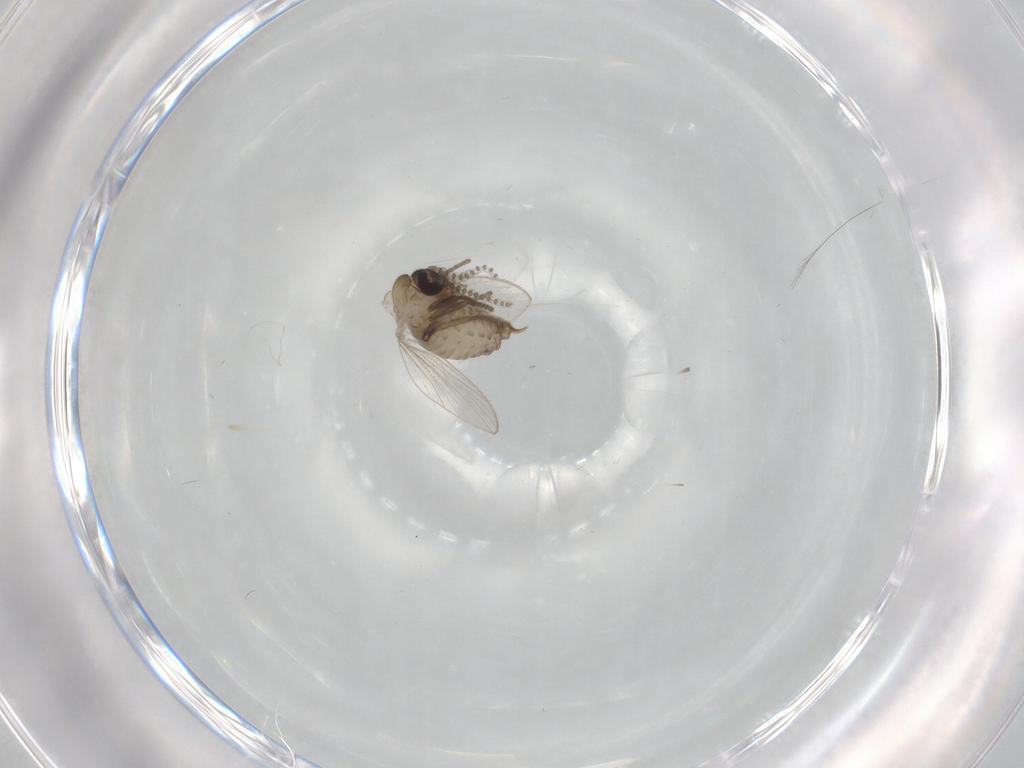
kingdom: Animalia
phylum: Arthropoda
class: Insecta
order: Diptera
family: Psychodidae
